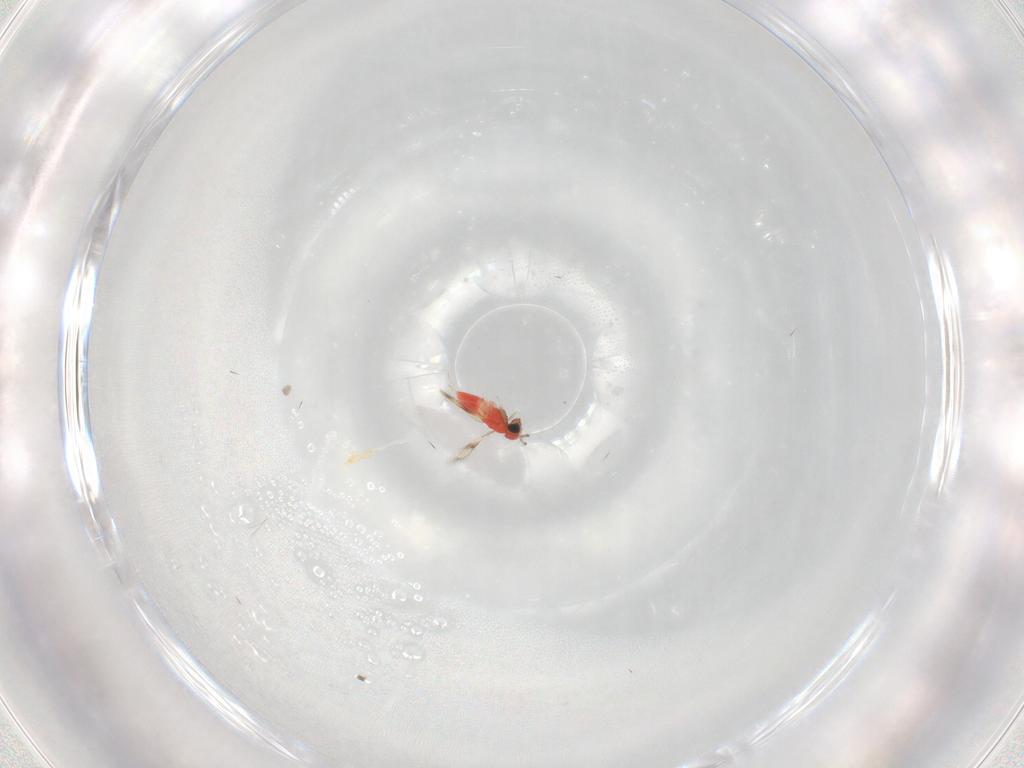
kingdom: Animalia
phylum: Arthropoda
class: Insecta
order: Hymenoptera
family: Trichogrammatidae
